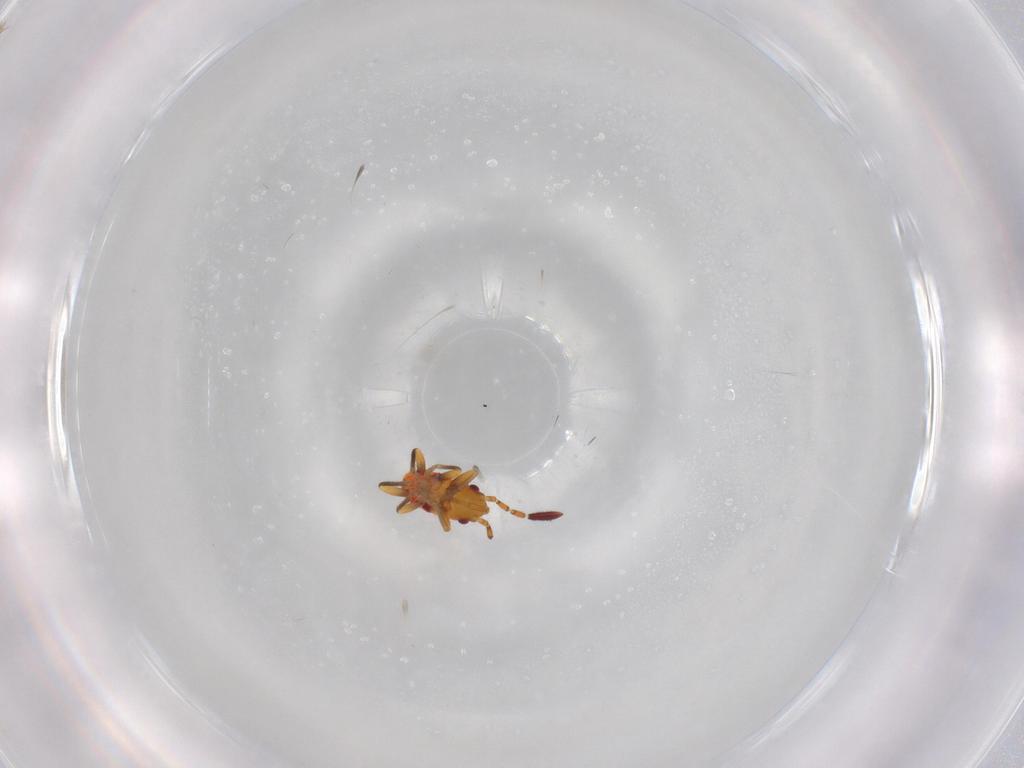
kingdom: Animalia
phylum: Arthropoda
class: Insecta
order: Hemiptera
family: Rhyparochromidae
